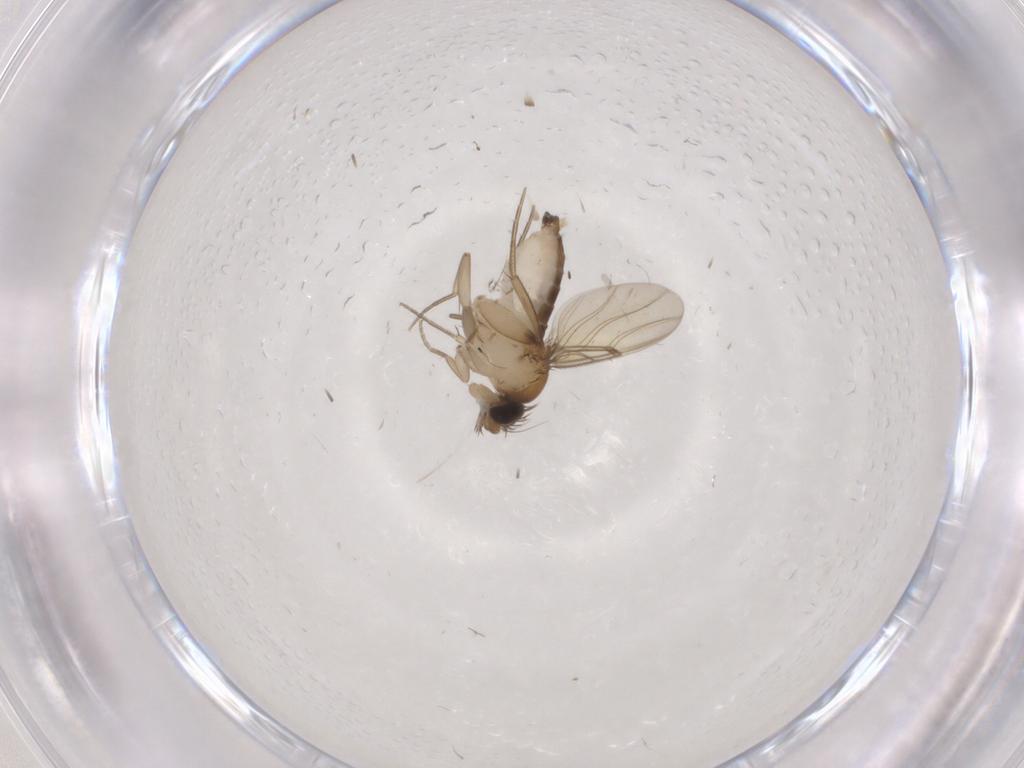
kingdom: Animalia
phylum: Arthropoda
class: Insecta
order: Diptera
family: Phoridae
